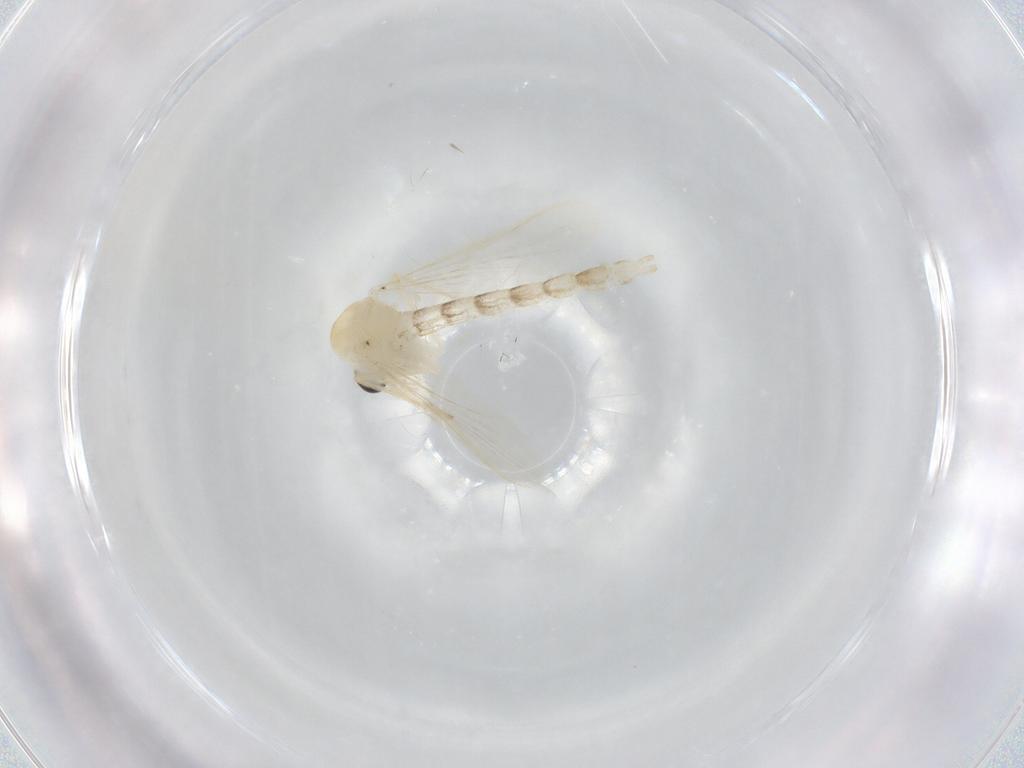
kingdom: Animalia
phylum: Arthropoda
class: Insecta
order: Diptera
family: Chironomidae
